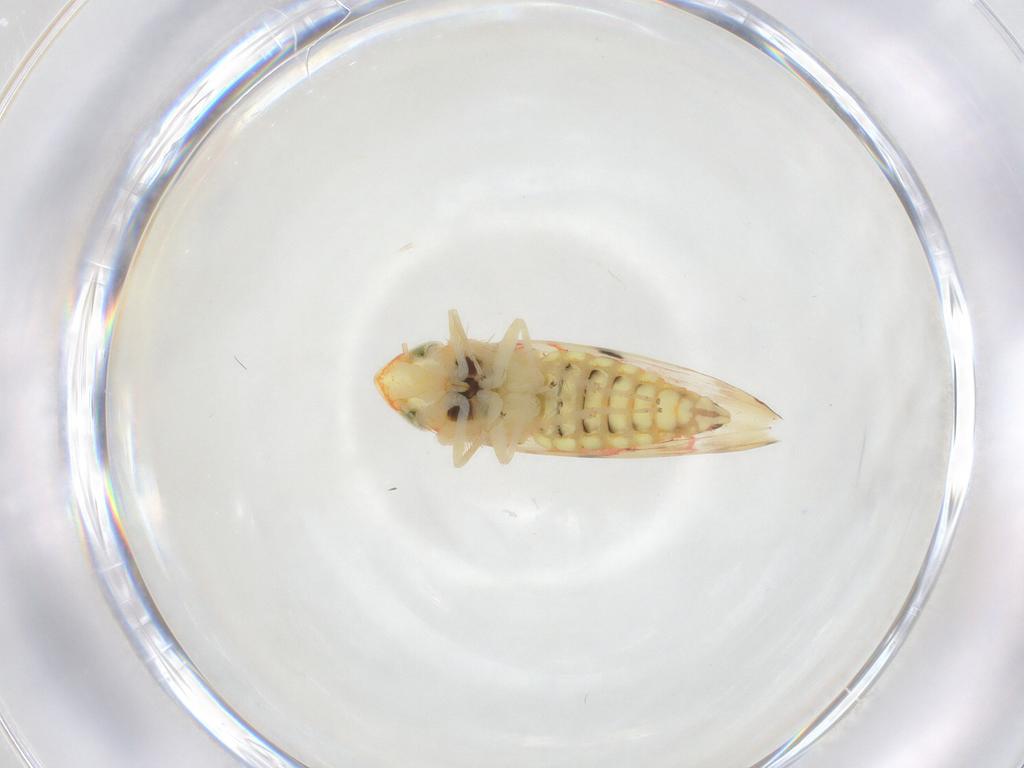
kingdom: Animalia
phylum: Arthropoda
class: Insecta
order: Hemiptera
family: Cicadellidae
